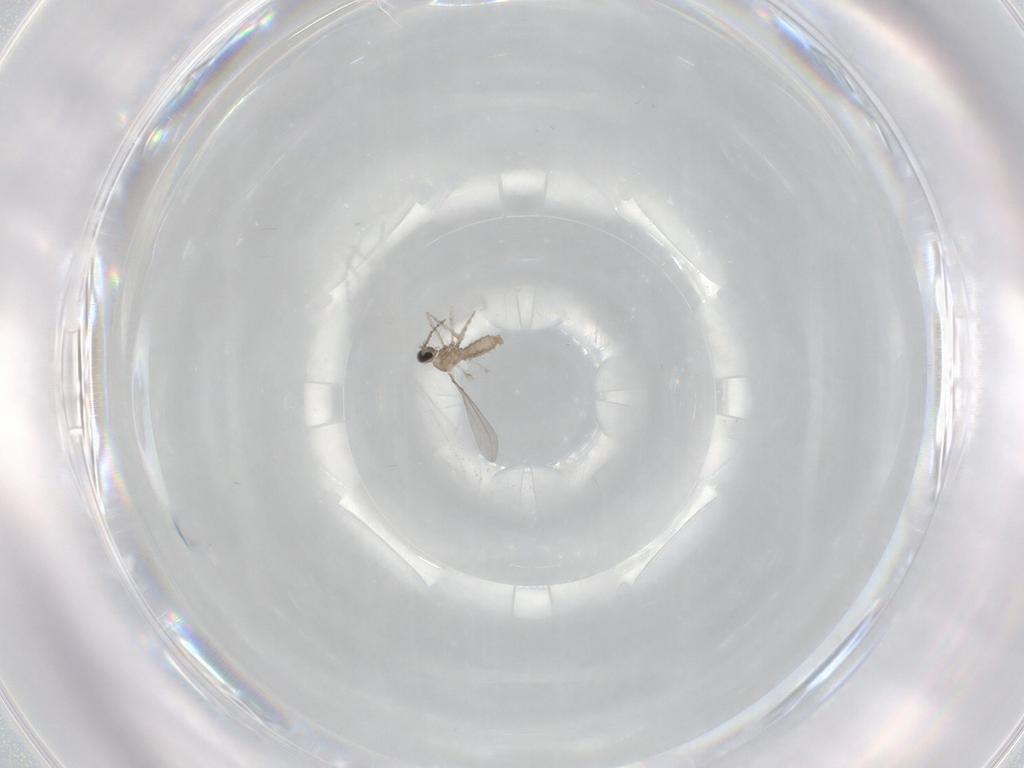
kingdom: Animalia
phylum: Arthropoda
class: Insecta
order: Diptera
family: Cecidomyiidae
